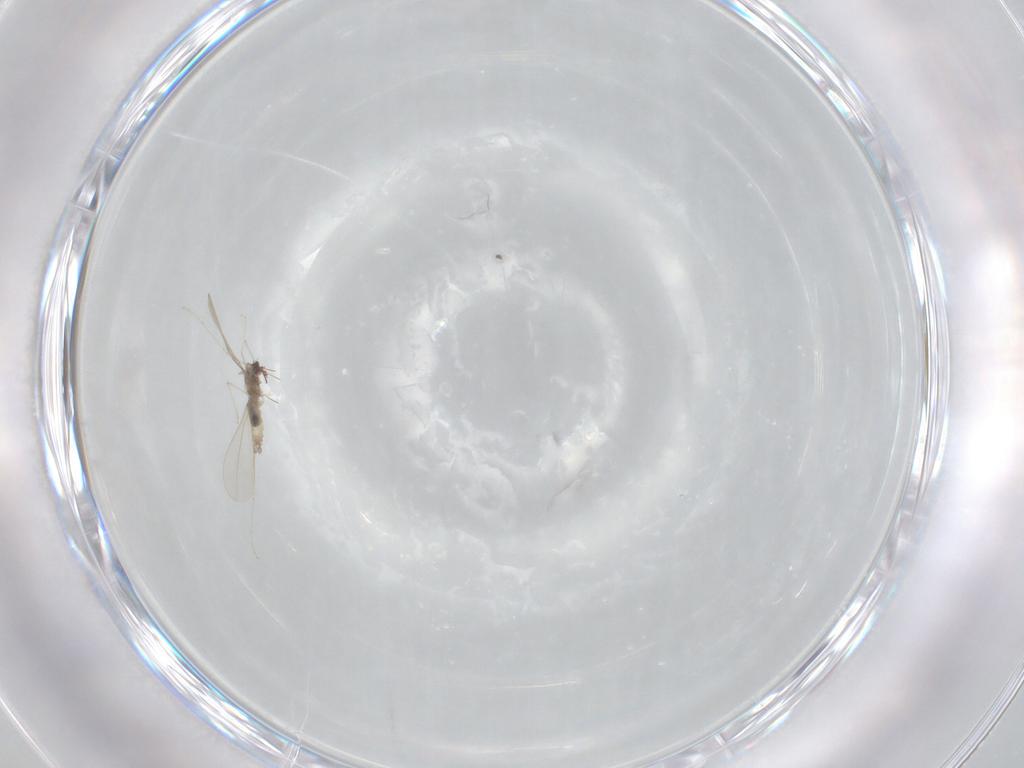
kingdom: Animalia
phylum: Arthropoda
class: Insecta
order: Diptera
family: Cecidomyiidae
